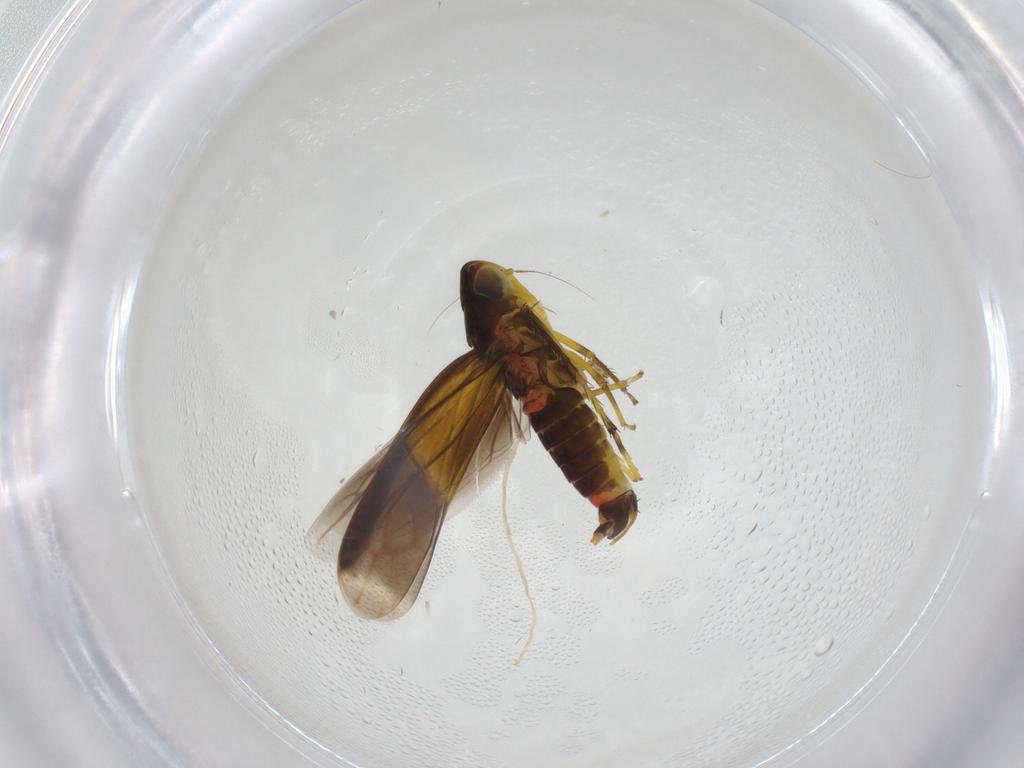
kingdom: Animalia
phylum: Arthropoda
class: Insecta
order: Hemiptera
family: Cicadellidae
